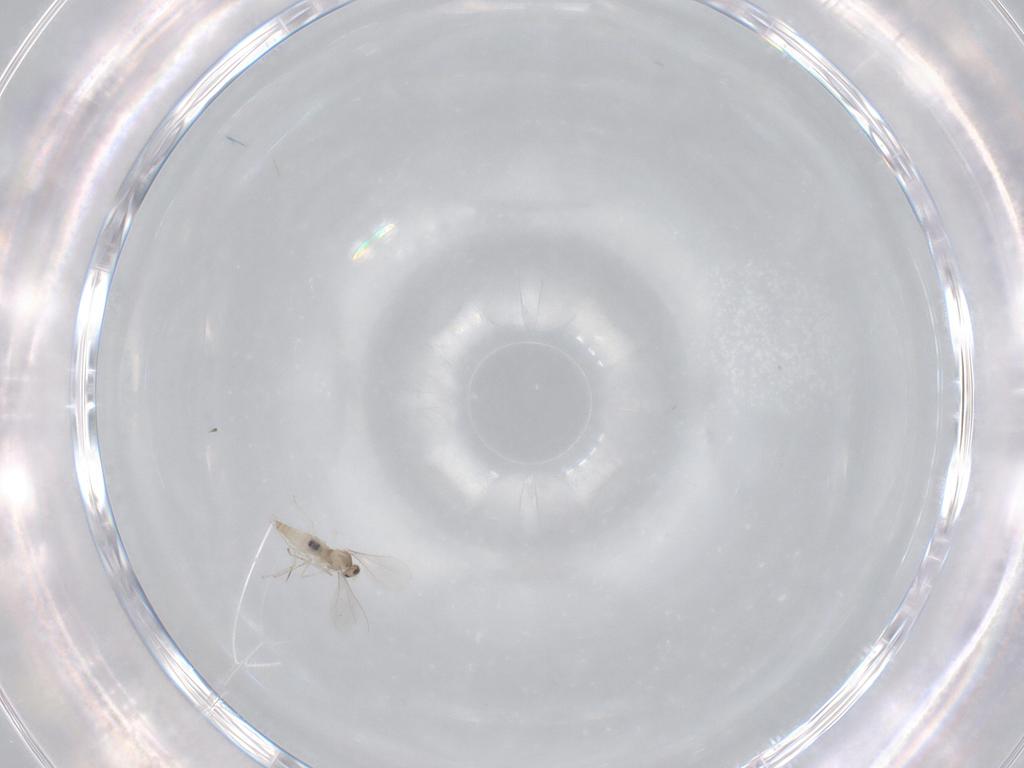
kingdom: Animalia
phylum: Arthropoda
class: Insecta
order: Diptera
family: Cecidomyiidae
